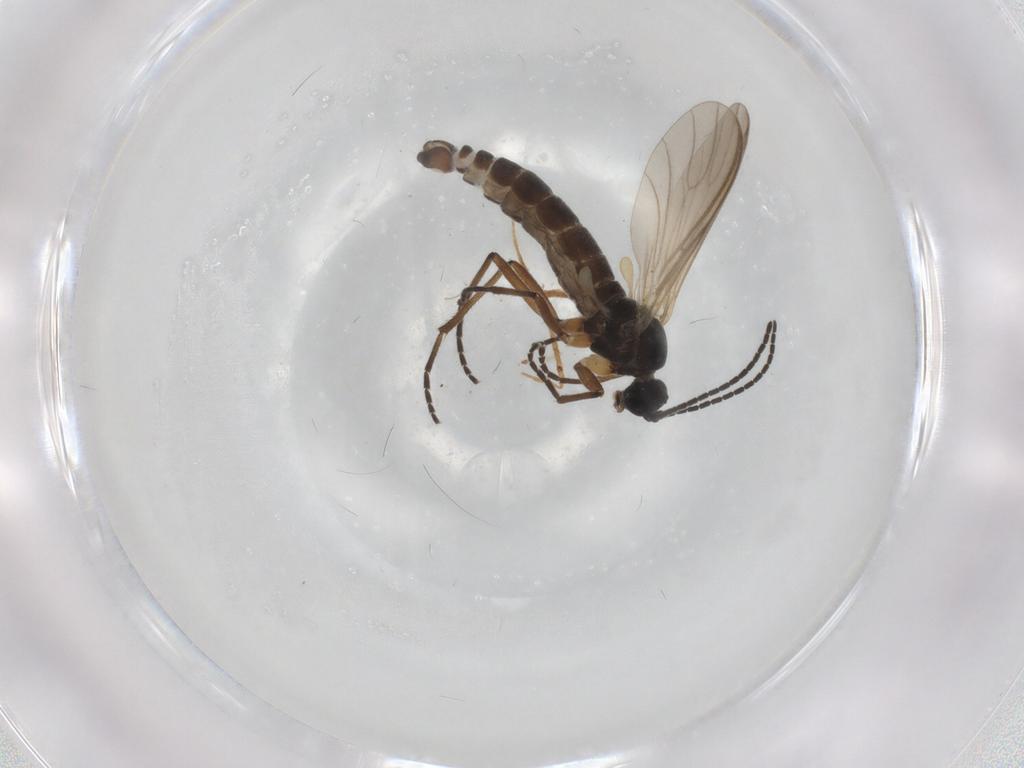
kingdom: Animalia
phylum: Arthropoda
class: Insecta
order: Diptera
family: Sciaridae
